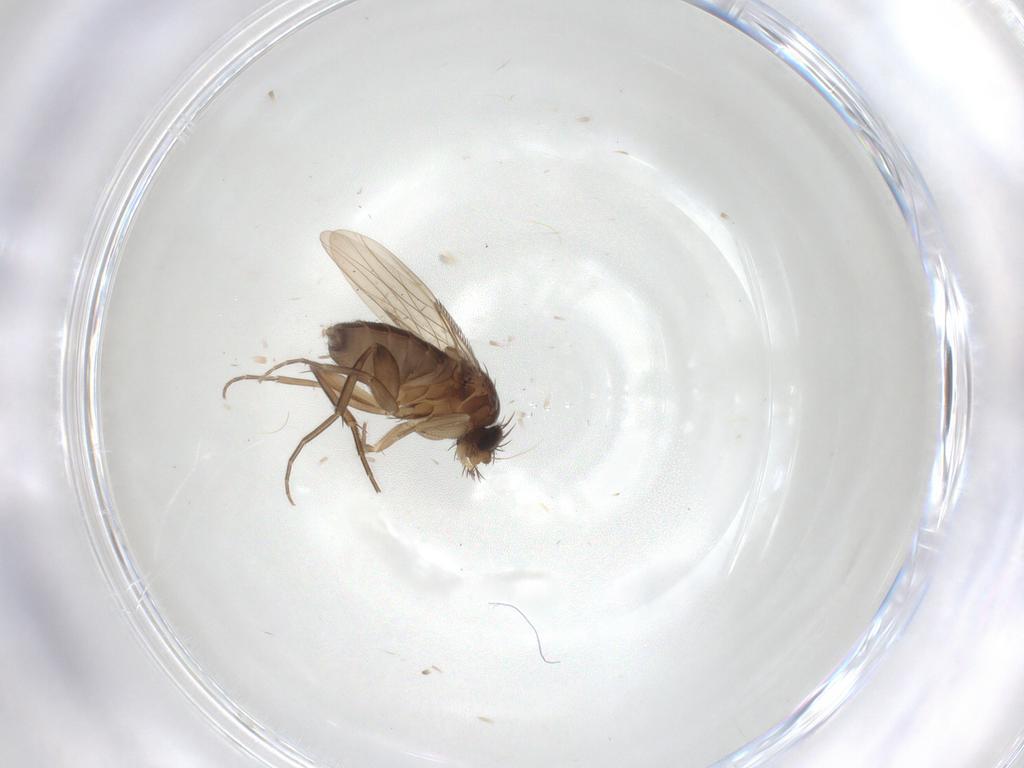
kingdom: Animalia
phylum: Arthropoda
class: Insecta
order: Diptera
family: Phoridae
